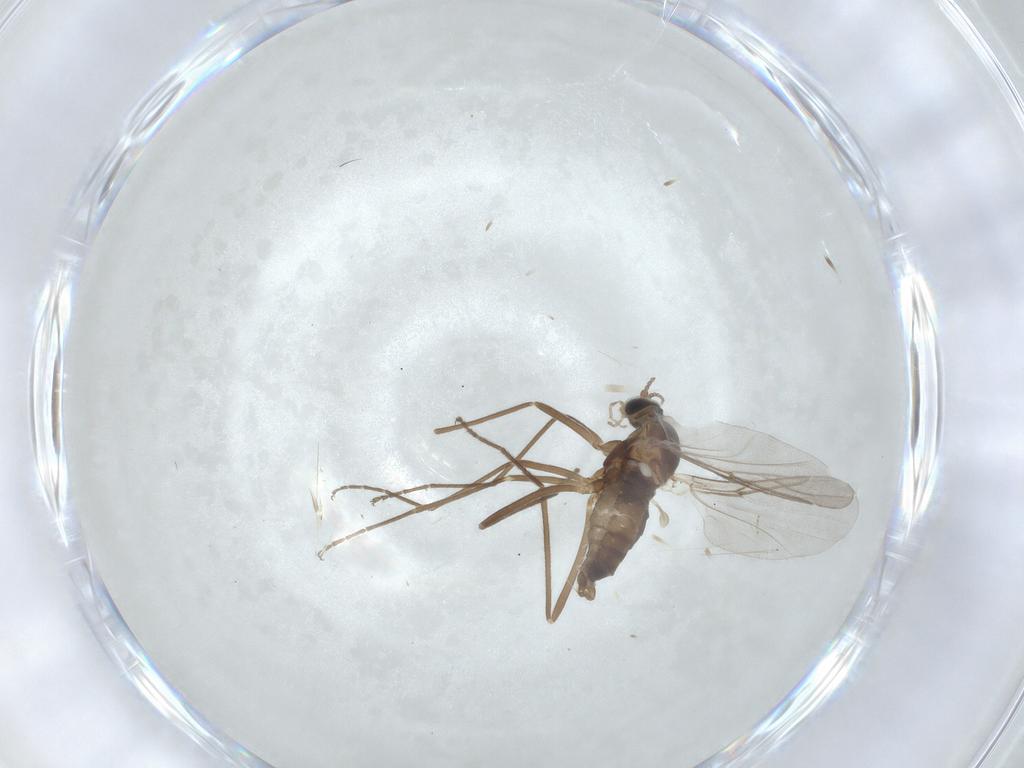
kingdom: Animalia
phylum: Arthropoda
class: Insecta
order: Diptera
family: Cecidomyiidae
